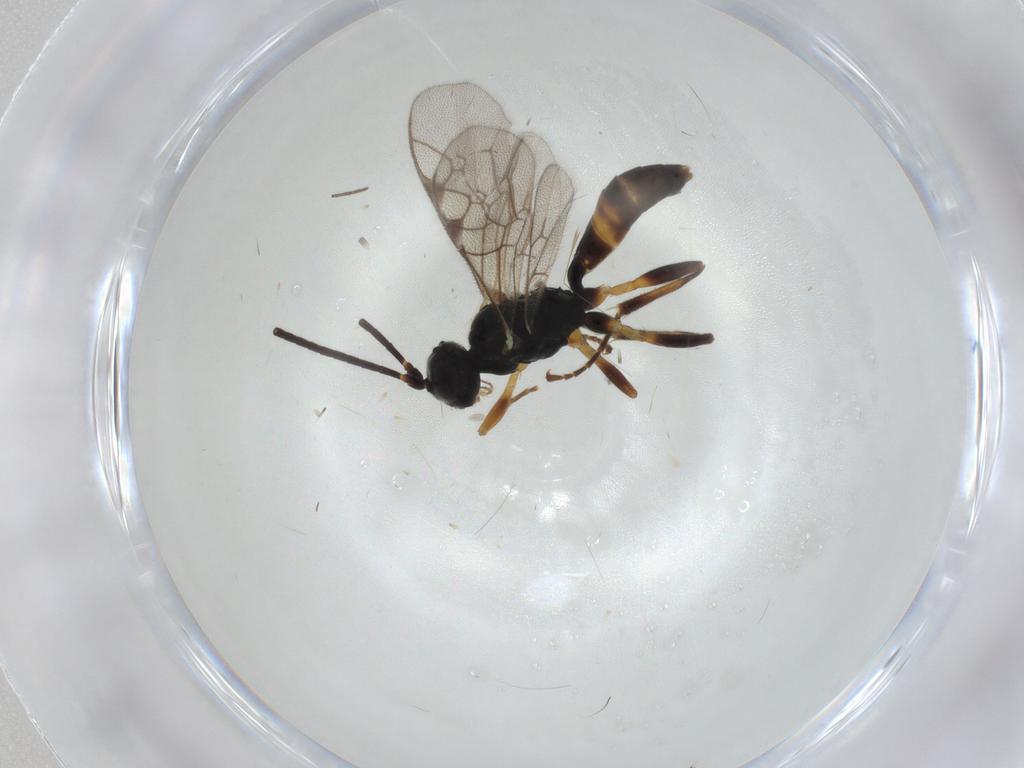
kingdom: Animalia
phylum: Arthropoda
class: Insecta
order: Hymenoptera
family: Ichneumonidae
